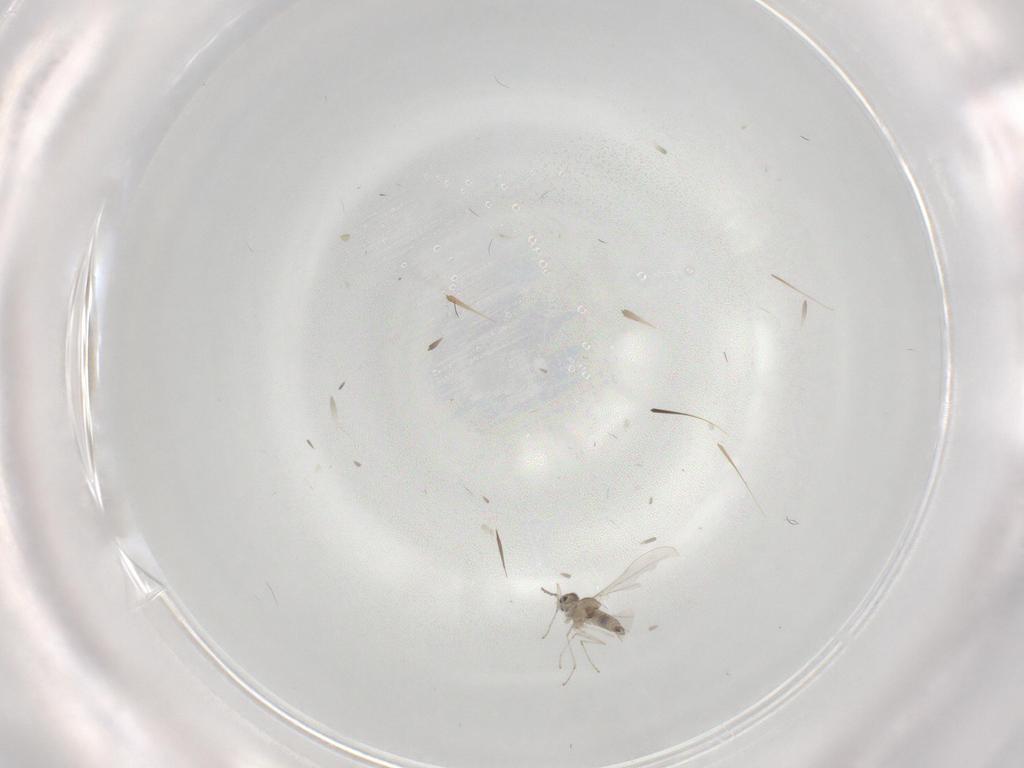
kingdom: Animalia
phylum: Arthropoda
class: Insecta
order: Diptera
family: Cecidomyiidae
